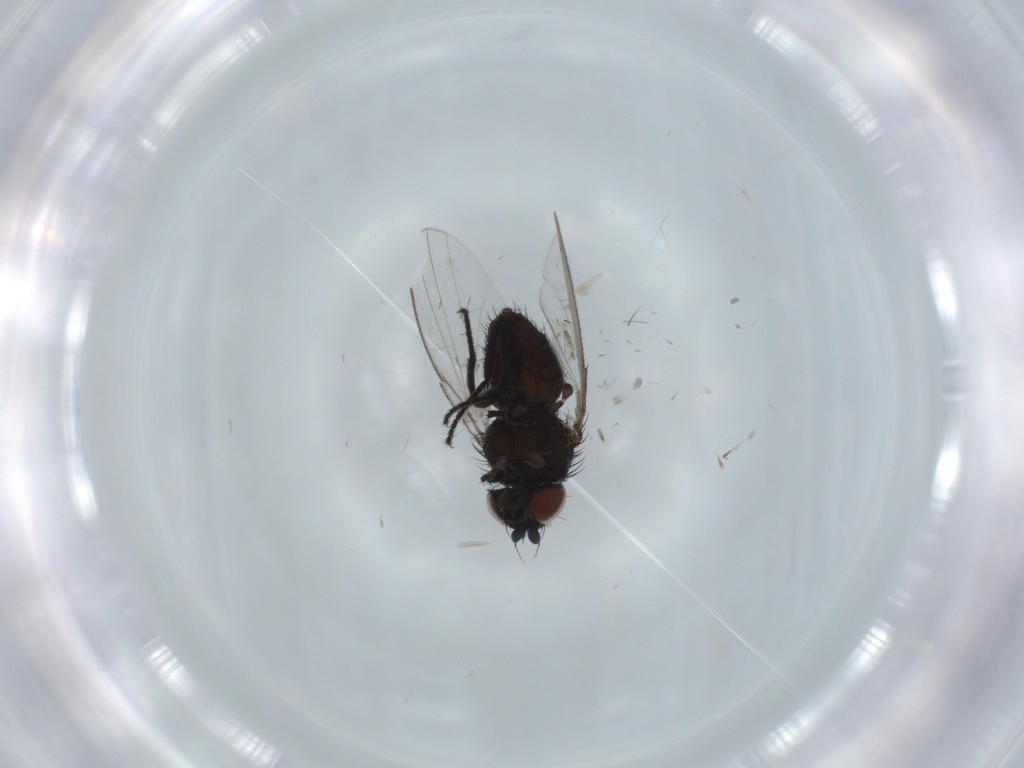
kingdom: Animalia
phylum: Arthropoda
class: Insecta
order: Diptera
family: Milichiidae
